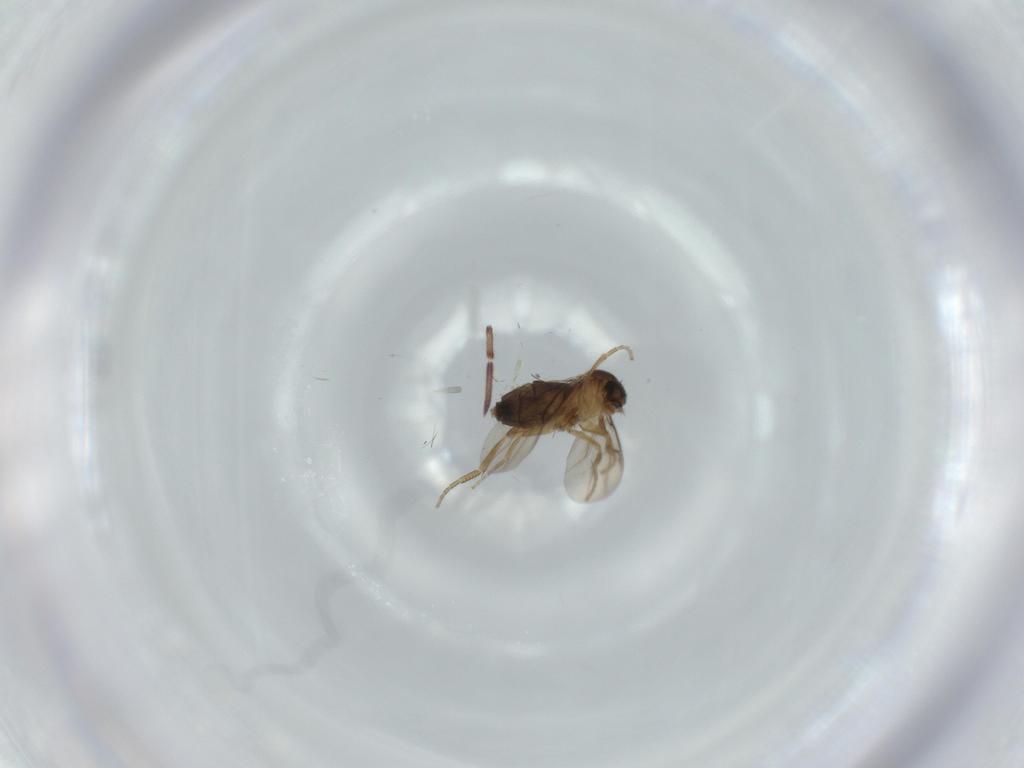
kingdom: Animalia
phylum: Arthropoda
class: Insecta
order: Diptera
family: Phoridae
